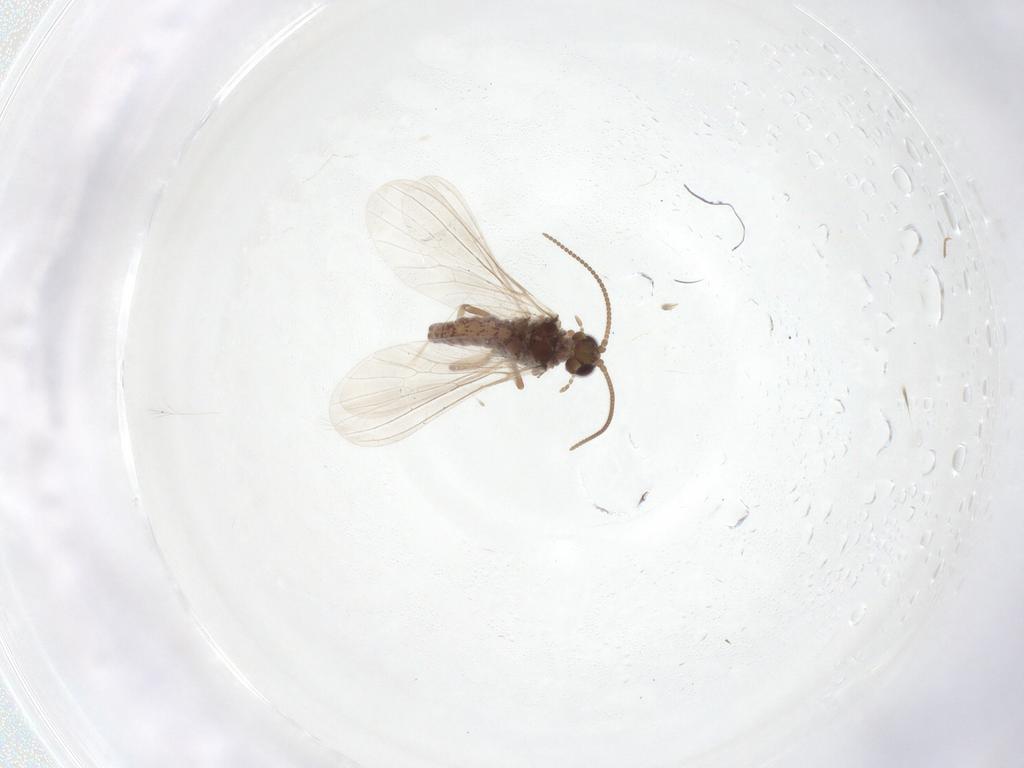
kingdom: Animalia
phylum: Arthropoda
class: Insecta
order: Neuroptera
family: Coniopterygidae
